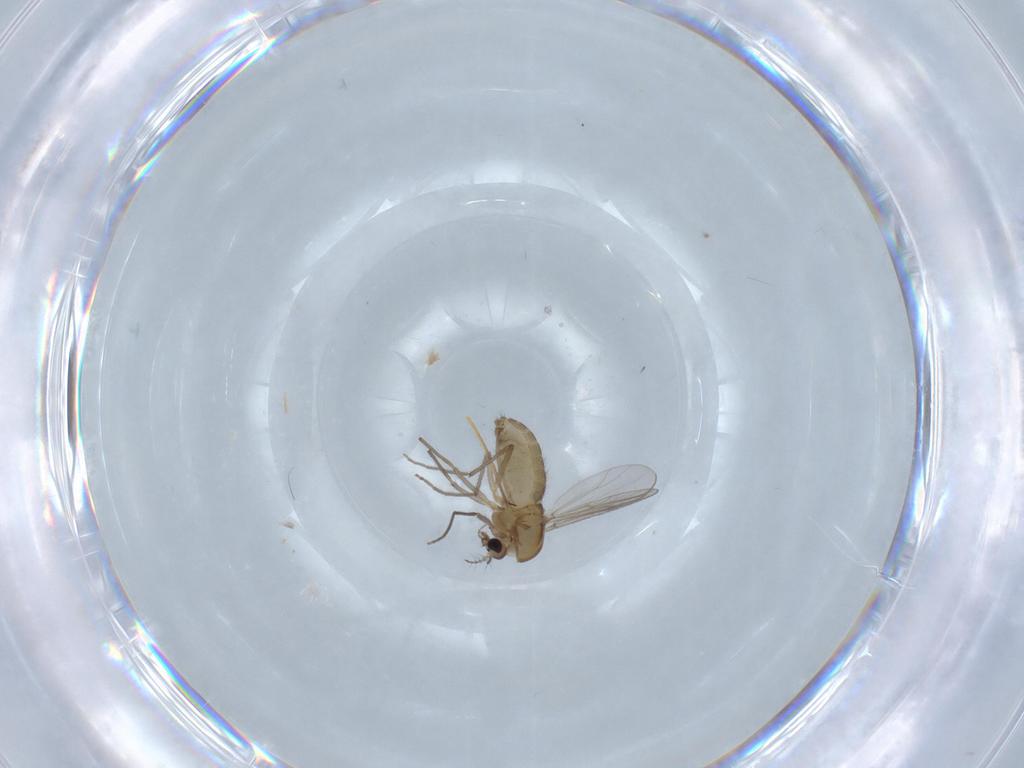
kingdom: Animalia
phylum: Arthropoda
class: Insecta
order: Diptera
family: Chironomidae
